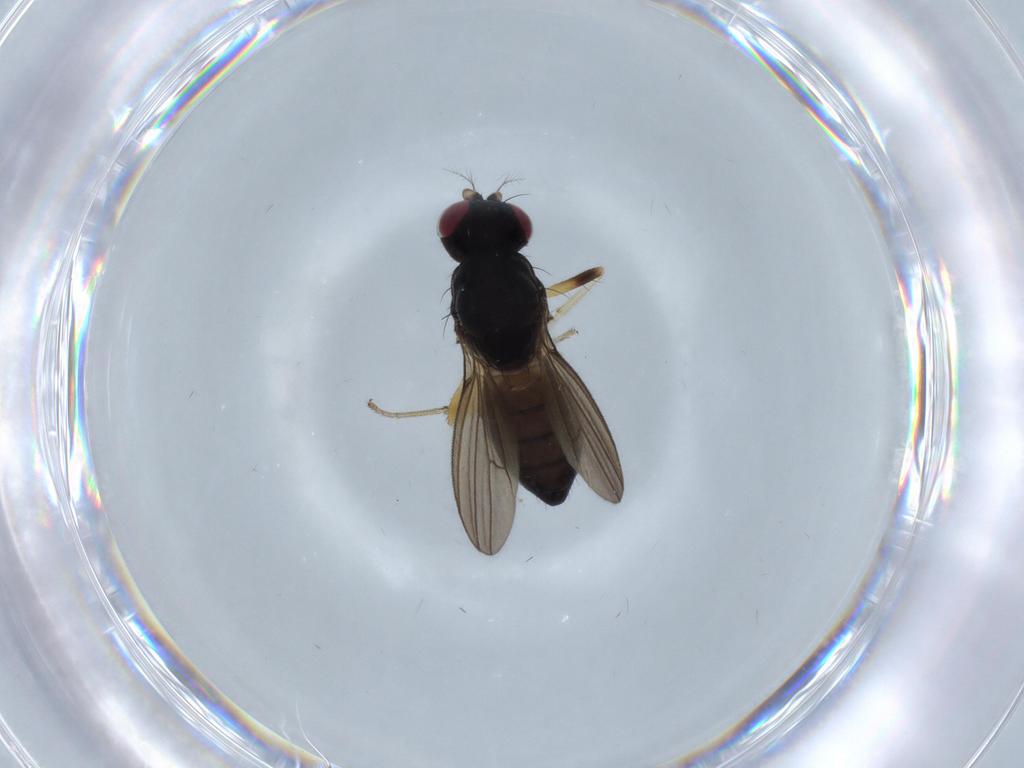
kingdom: Animalia
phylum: Arthropoda
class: Insecta
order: Diptera
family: Lauxaniidae
